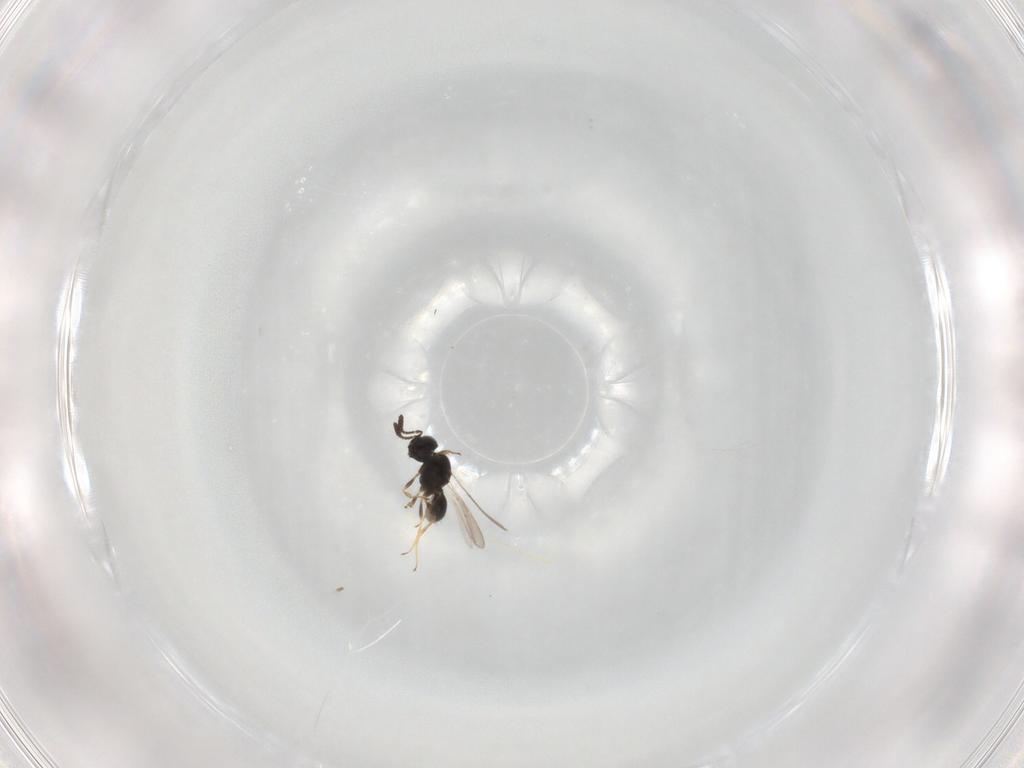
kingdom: Animalia
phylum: Arthropoda
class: Insecta
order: Hymenoptera
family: Scelionidae
